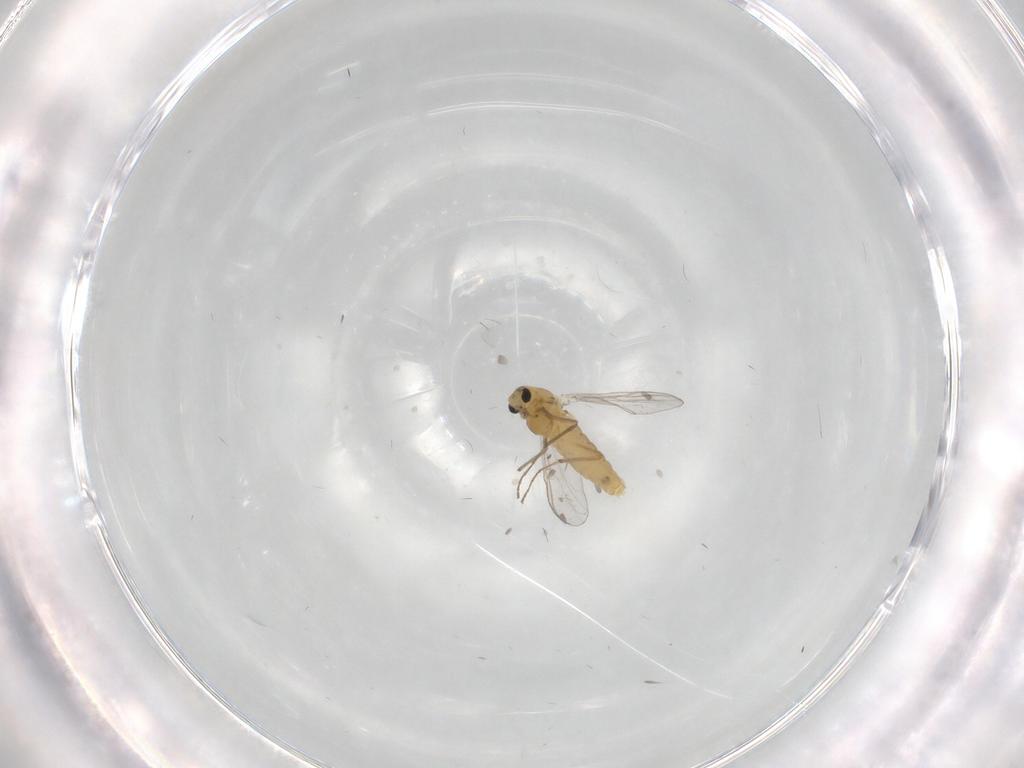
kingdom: Animalia
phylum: Arthropoda
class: Insecta
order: Diptera
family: Chironomidae
